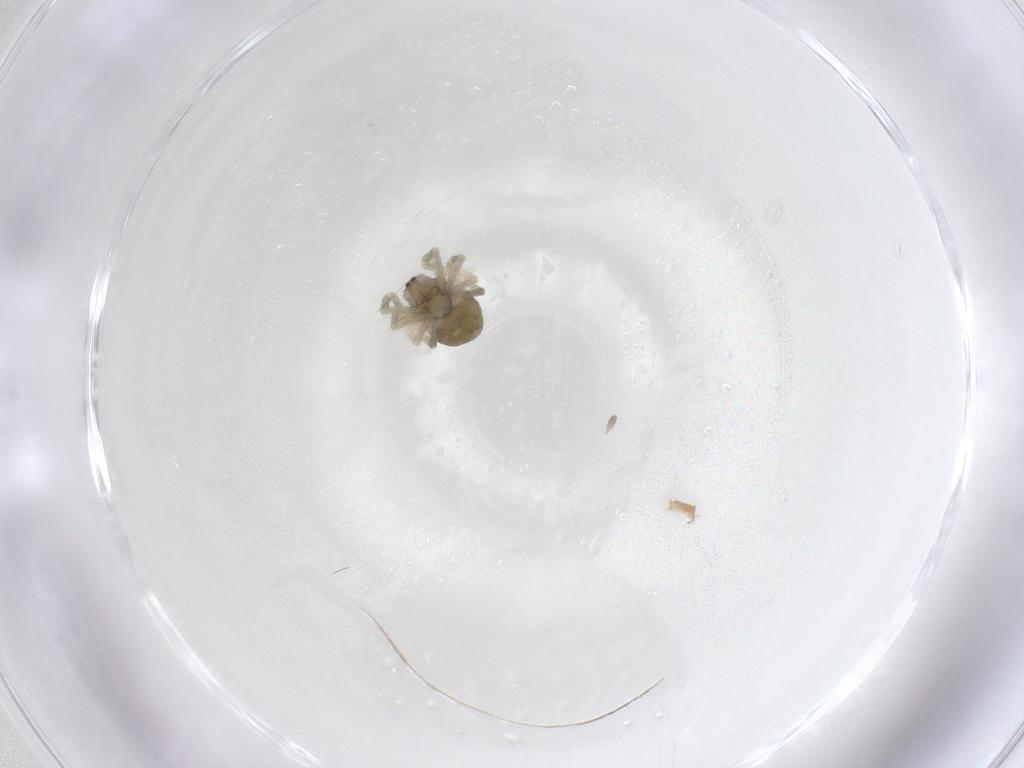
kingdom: Animalia
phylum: Arthropoda
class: Arachnida
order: Araneae
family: Theridiidae
